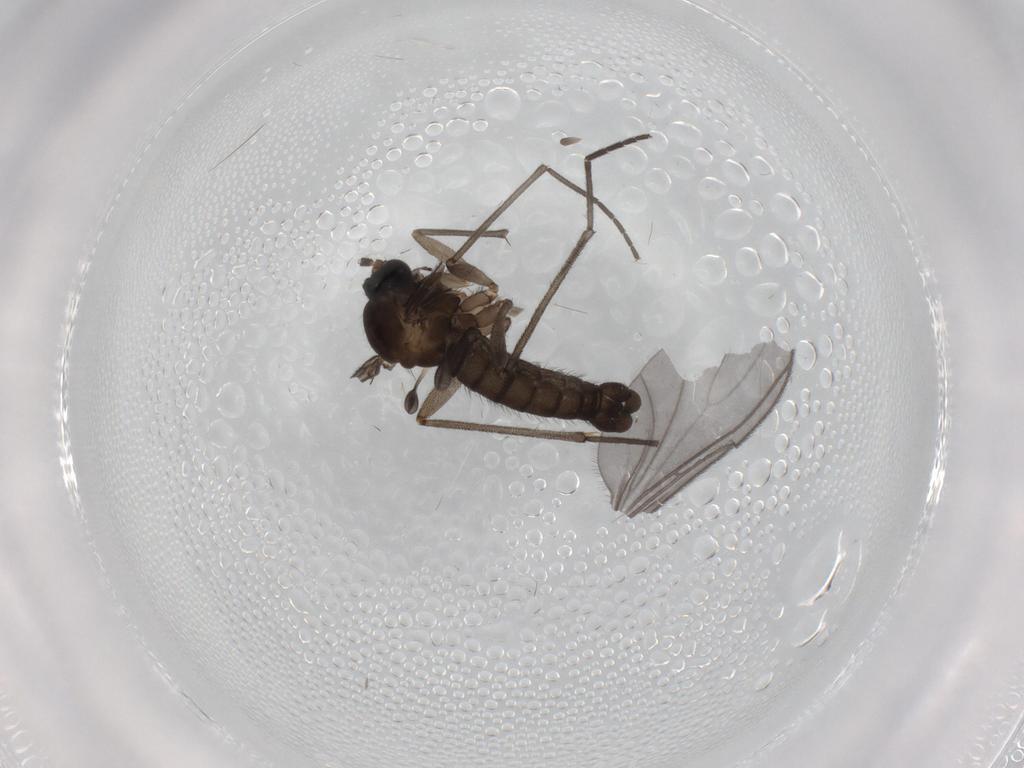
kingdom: Animalia
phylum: Arthropoda
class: Insecta
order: Diptera
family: Sciaridae
